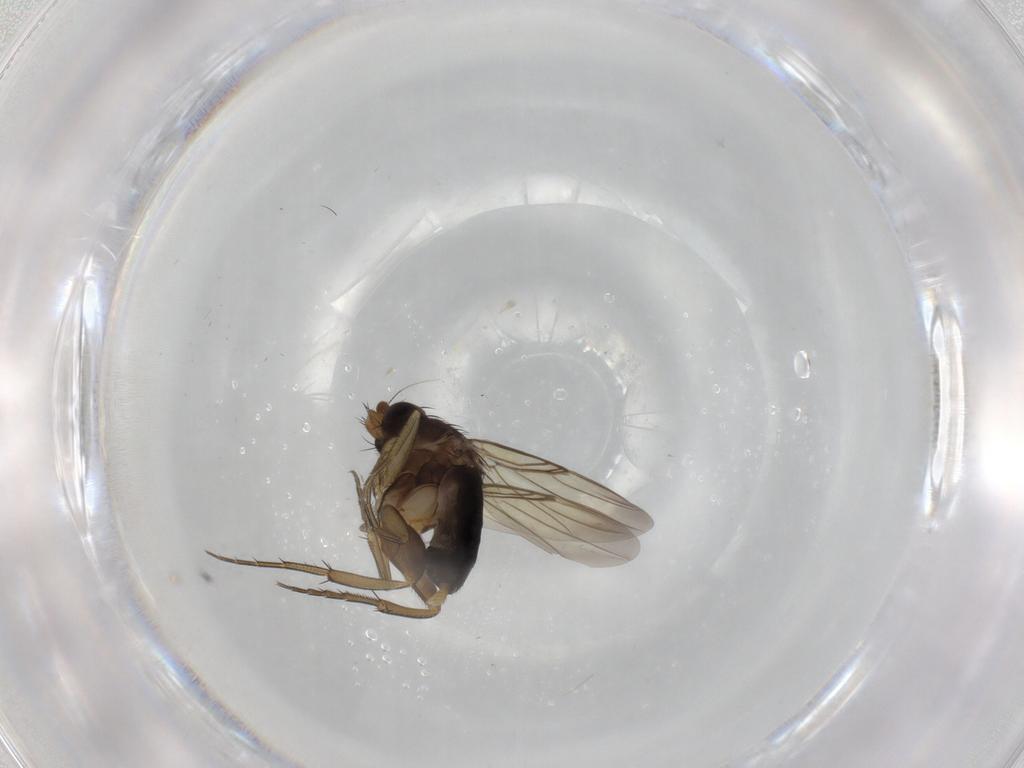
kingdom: Animalia
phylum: Arthropoda
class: Insecta
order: Diptera
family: Phoridae
